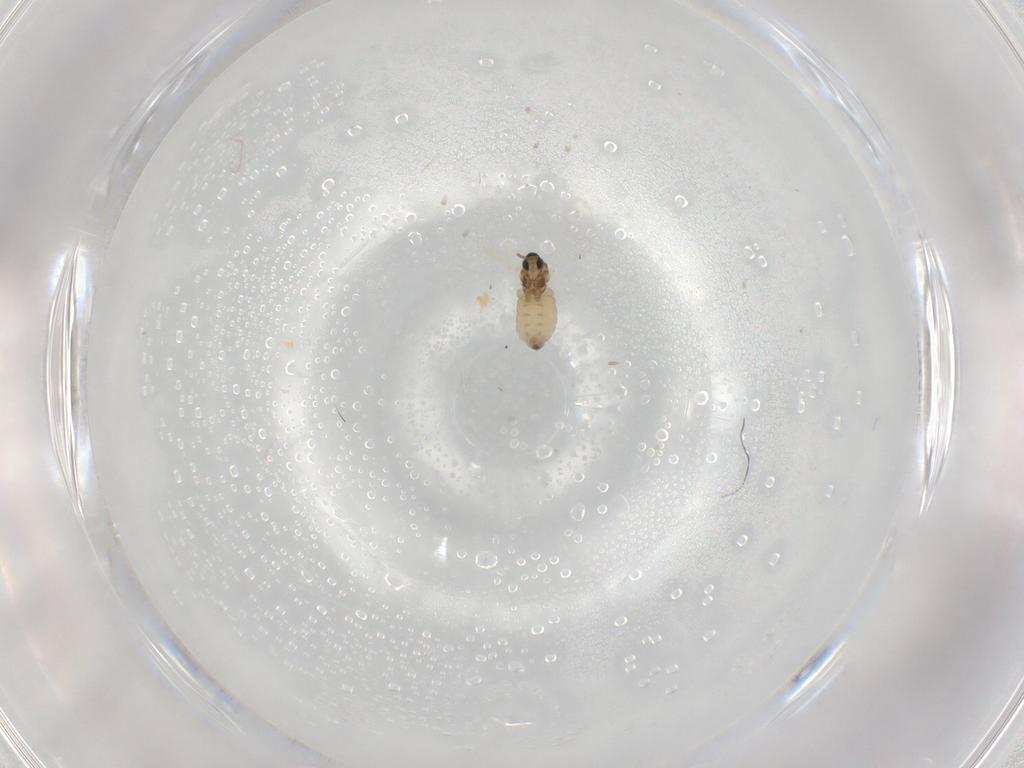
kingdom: Animalia
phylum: Arthropoda
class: Insecta
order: Diptera
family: Cecidomyiidae
